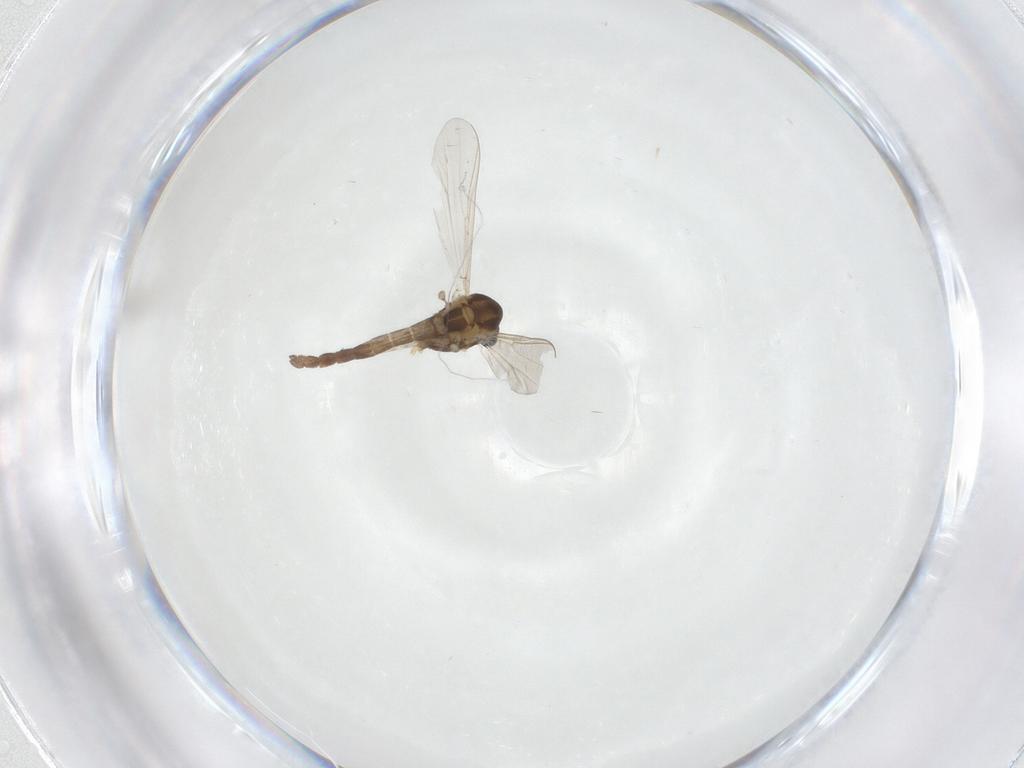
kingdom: Animalia
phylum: Arthropoda
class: Insecta
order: Diptera
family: Chironomidae
